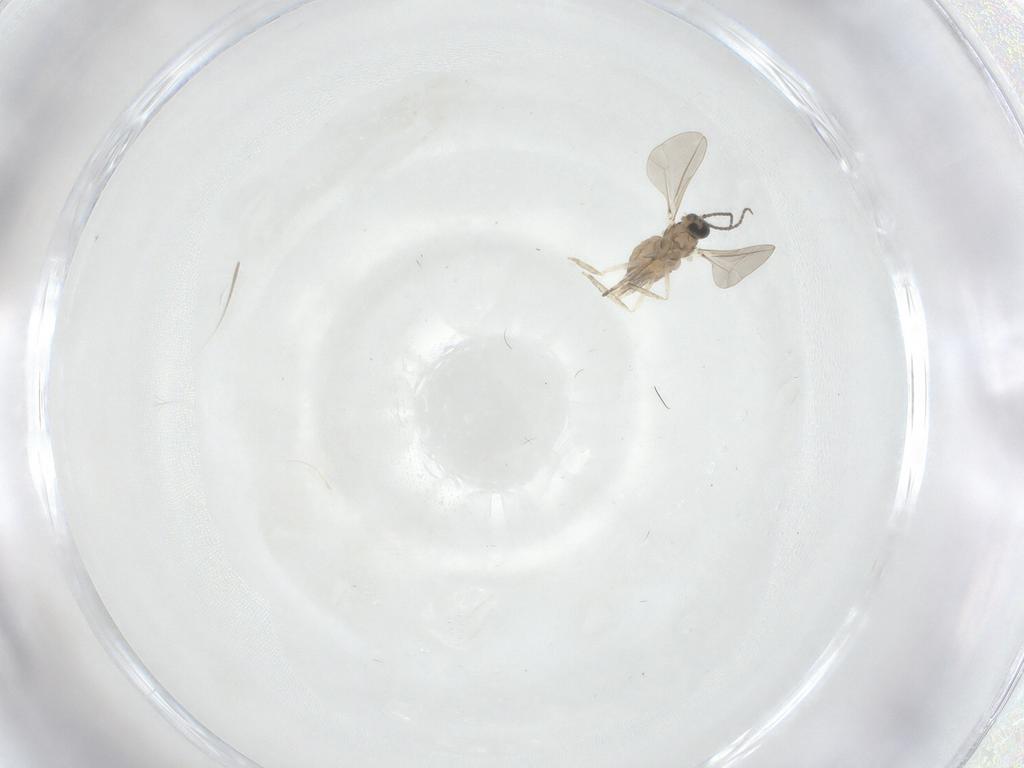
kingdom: Animalia
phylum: Arthropoda
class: Insecta
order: Diptera
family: Cecidomyiidae
